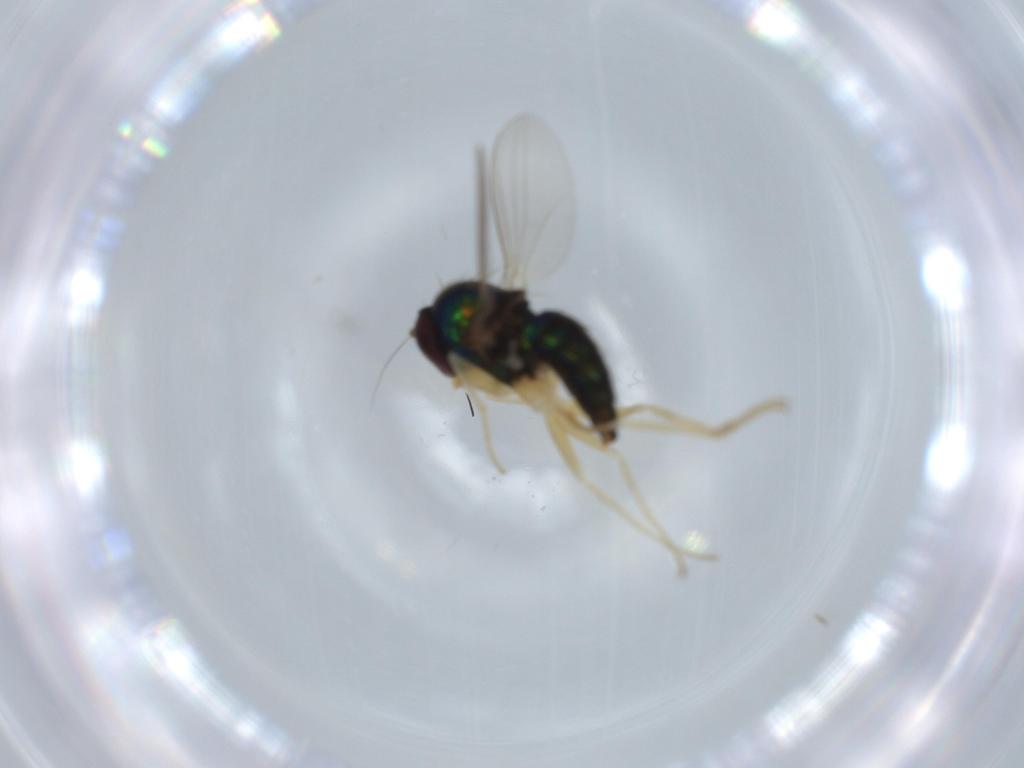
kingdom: Animalia
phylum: Arthropoda
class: Insecta
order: Diptera
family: Dolichopodidae
